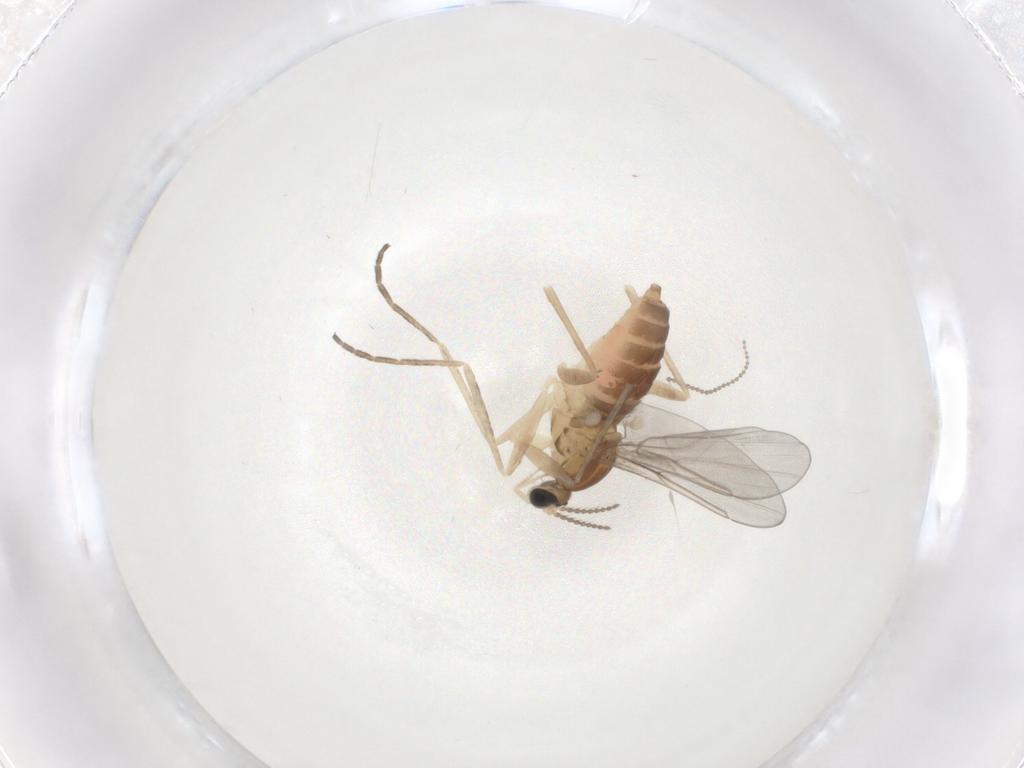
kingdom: Animalia
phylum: Arthropoda
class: Insecta
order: Diptera
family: Cecidomyiidae
